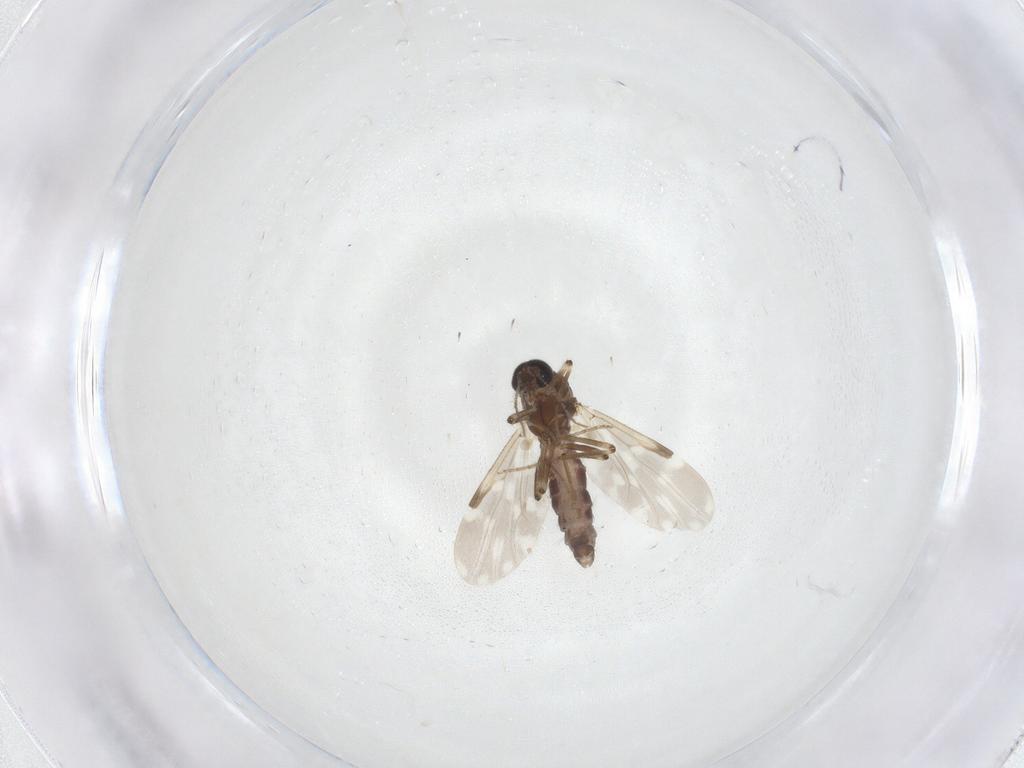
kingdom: Animalia
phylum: Arthropoda
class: Insecta
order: Diptera
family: Ceratopogonidae
